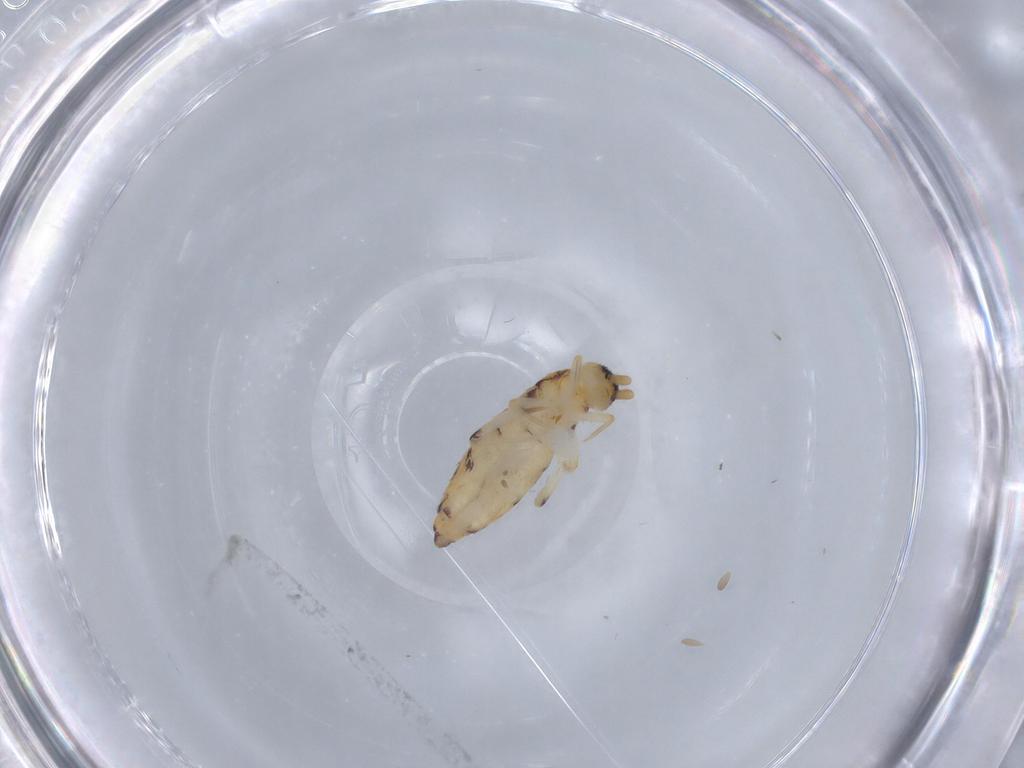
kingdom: Animalia
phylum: Arthropoda
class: Collembola
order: Entomobryomorpha
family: Entomobryidae
